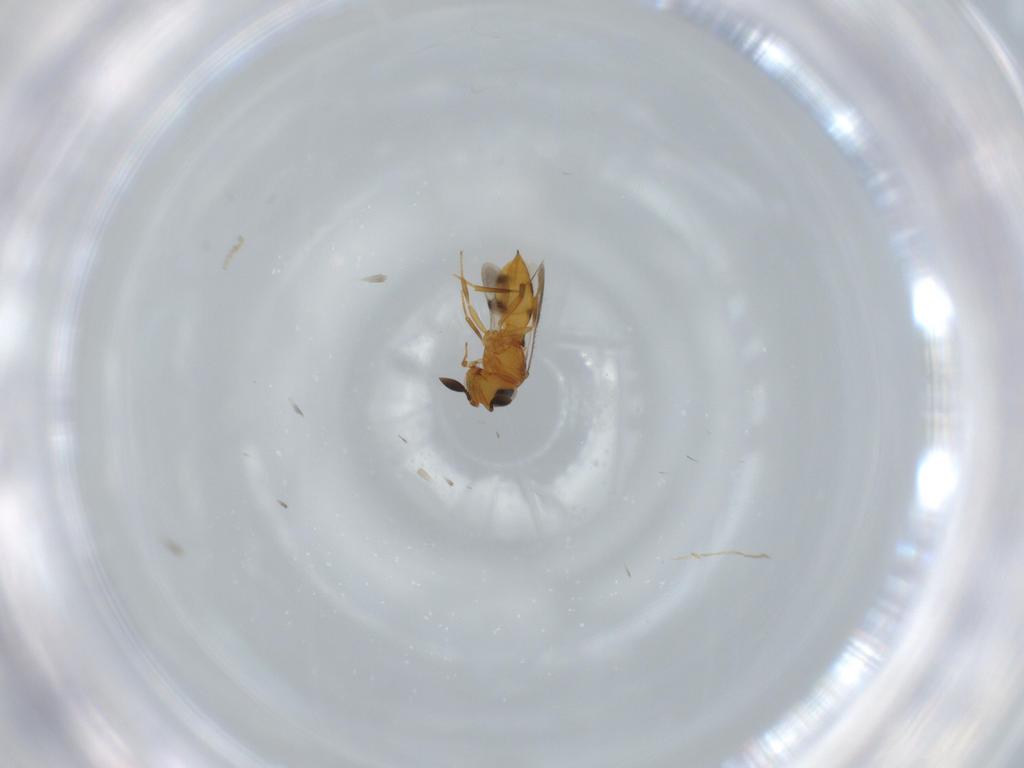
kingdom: Animalia
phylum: Arthropoda
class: Insecta
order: Hymenoptera
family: Scelionidae
